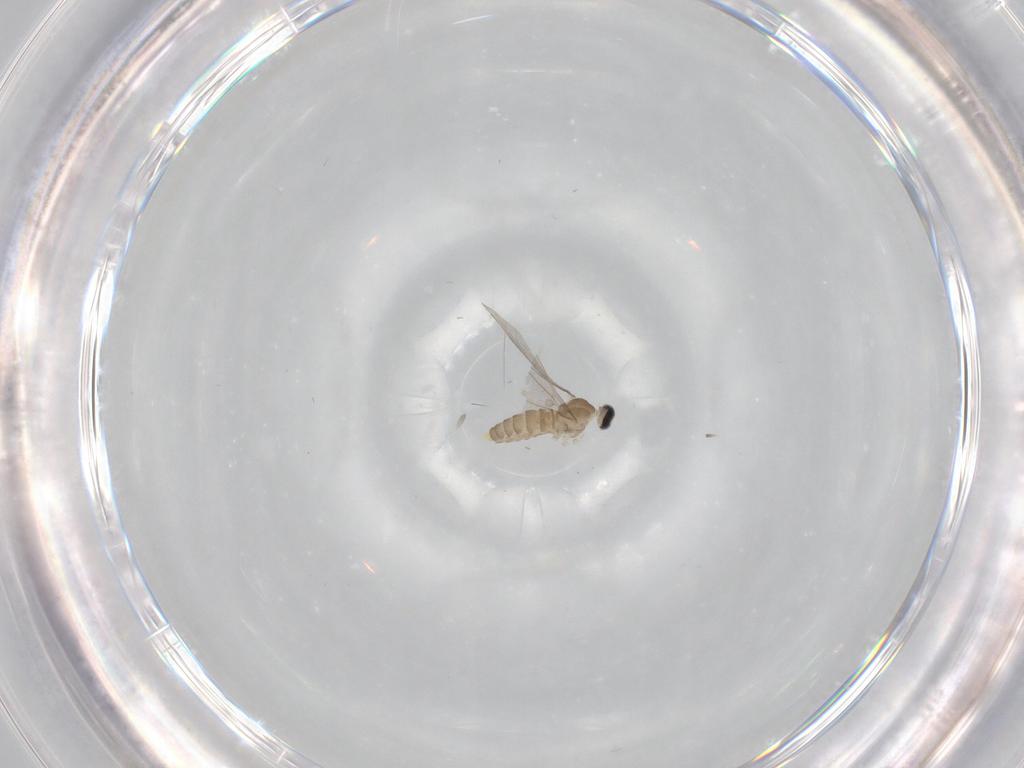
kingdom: Animalia
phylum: Arthropoda
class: Insecta
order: Diptera
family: Cecidomyiidae
